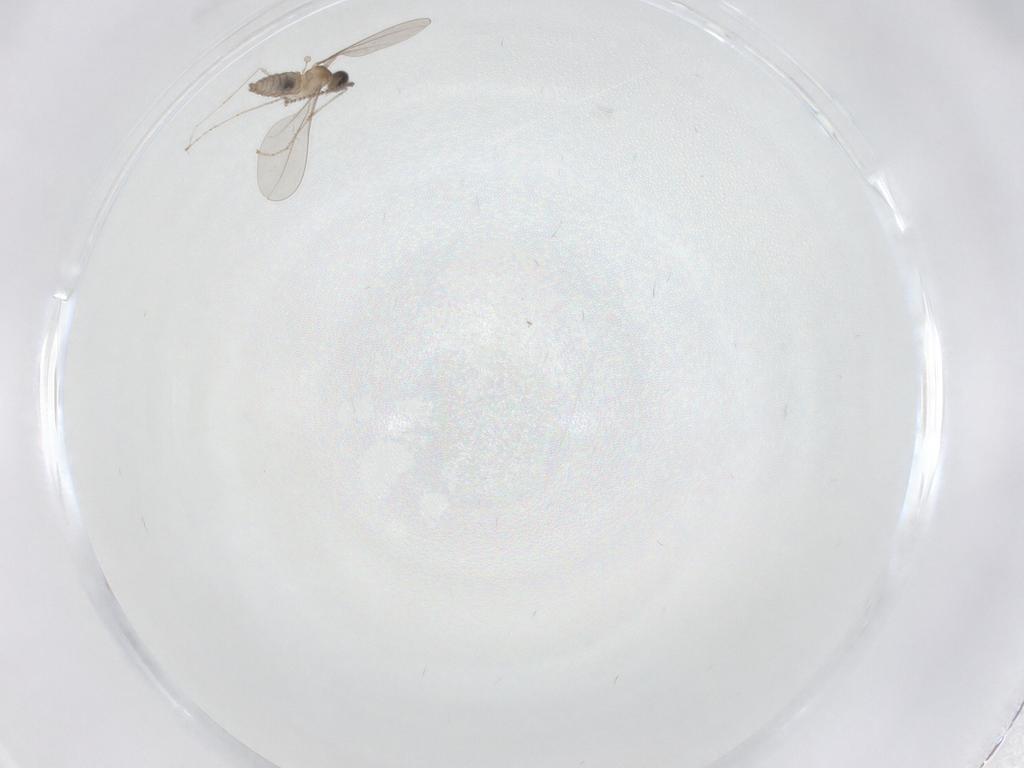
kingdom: Animalia
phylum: Arthropoda
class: Insecta
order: Diptera
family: Cecidomyiidae
